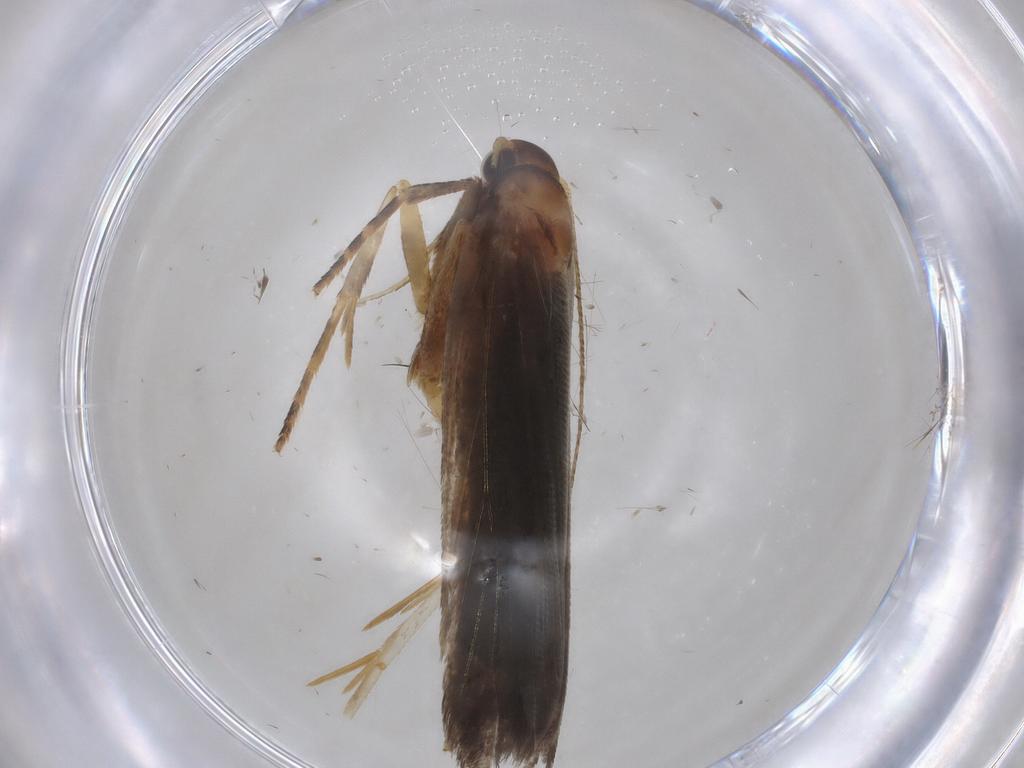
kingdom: Animalia
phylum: Arthropoda
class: Insecta
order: Lepidoptera
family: Gelechiidae
